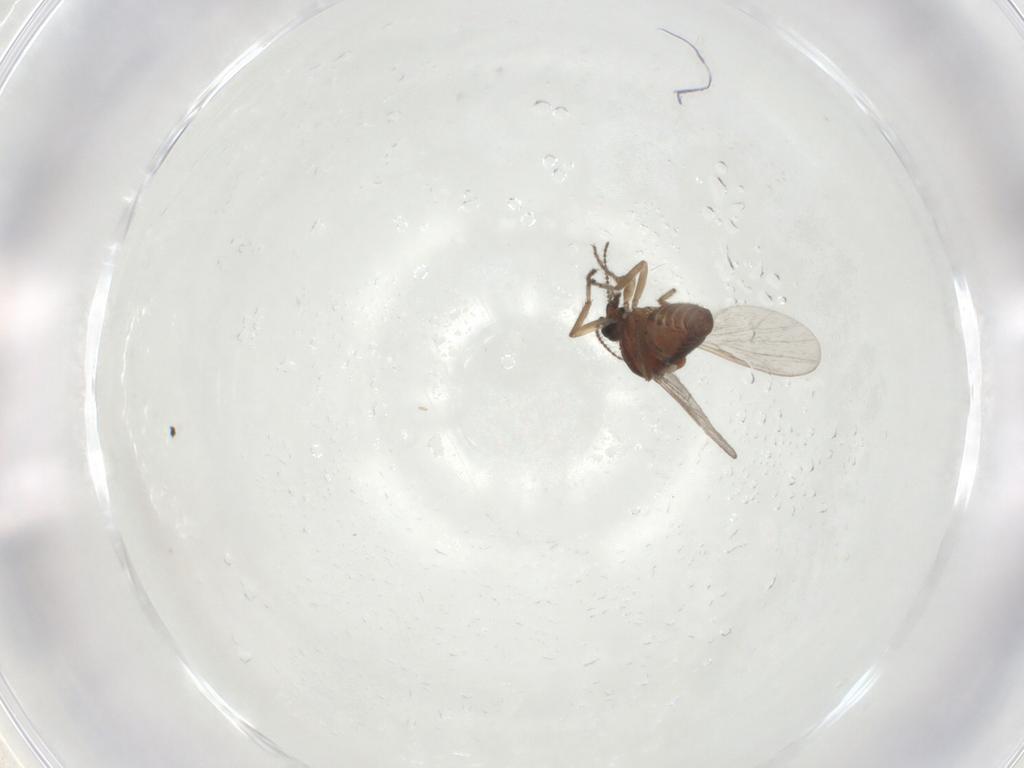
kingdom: Animalia
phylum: Arthropoda
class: Insecta
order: Diptera
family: Ceratopogonidae
